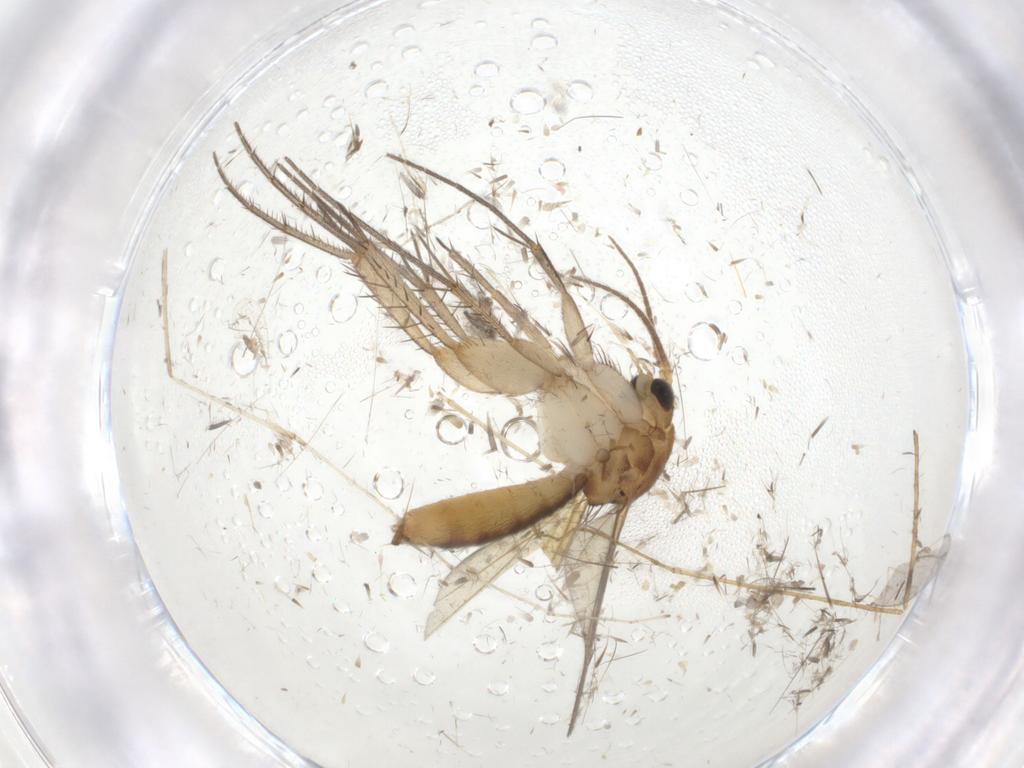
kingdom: Animalia
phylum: Arthropoda
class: Insecta
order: Diptera
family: Mycetophilidae
